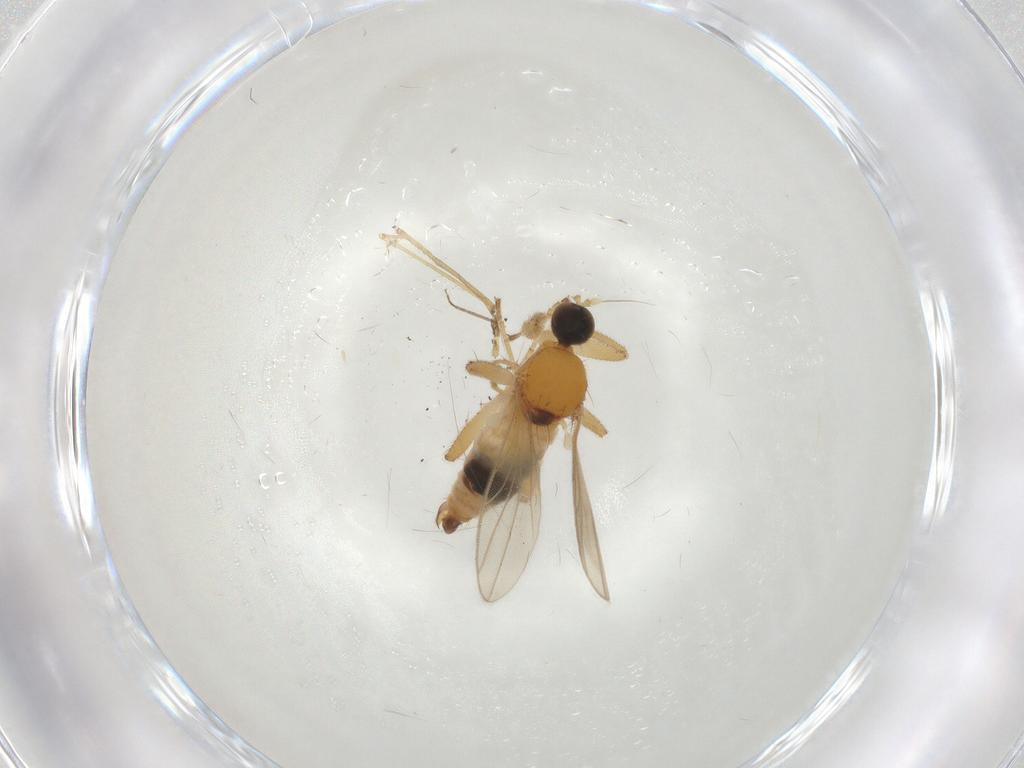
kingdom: Animalia
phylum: Arthropoda
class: Insecta
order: Diptera
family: Hybotidae
